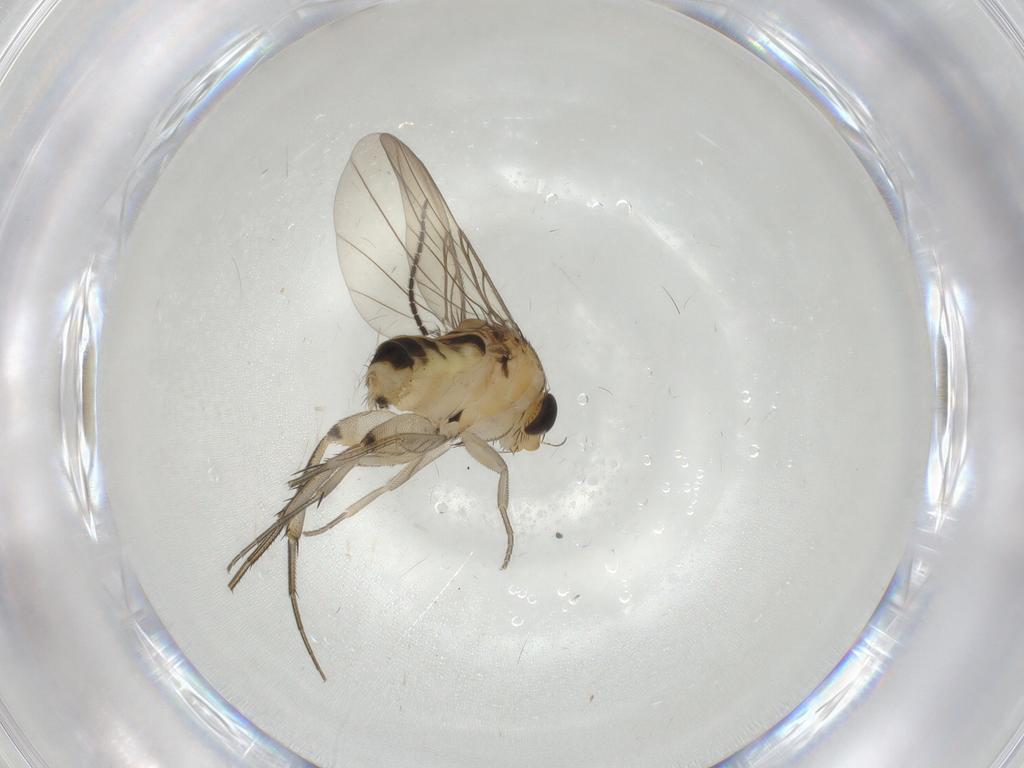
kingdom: Animalia
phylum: Arthropoda
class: Insecta
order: Diptera
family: Phoridae
